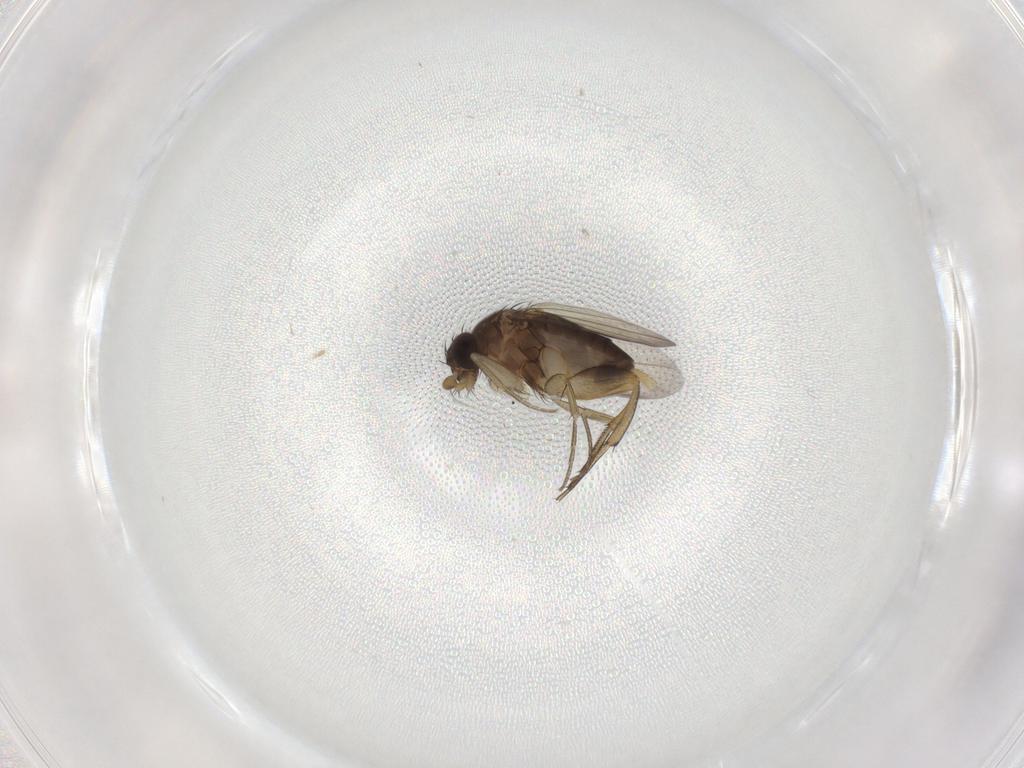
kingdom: Animalia
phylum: Arthropoda
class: Insecta
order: Diptera
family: Phoridae
